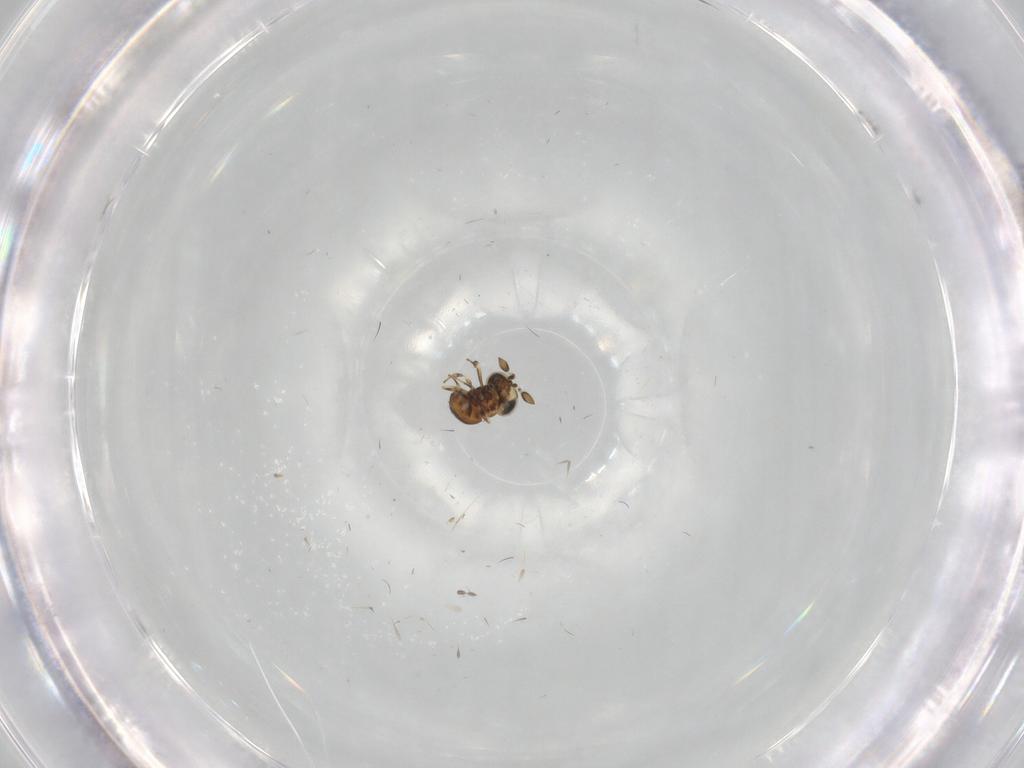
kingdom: Animalia
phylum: Arthropoda
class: Insecta
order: Hymenoptera
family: Scelionidae
